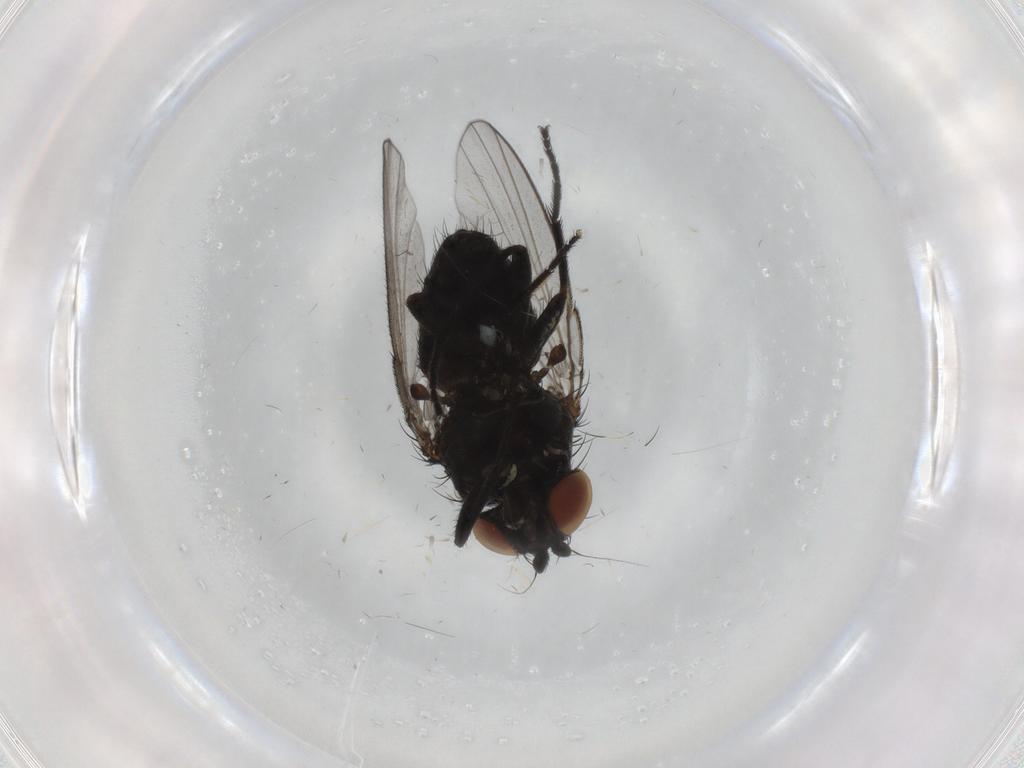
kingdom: Animalia
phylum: Arthropoda
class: Insecta
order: Diptera
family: Milichiidae
